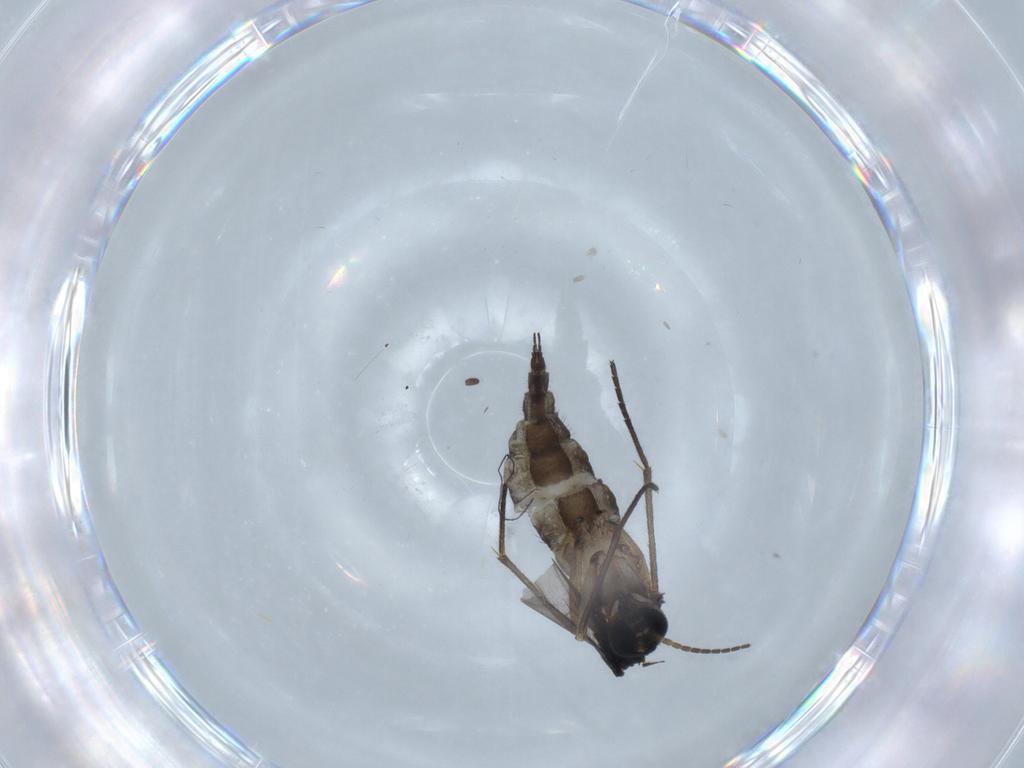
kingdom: Animalia
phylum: Arthropoda
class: Insecta
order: Diptera
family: Sciaridae
